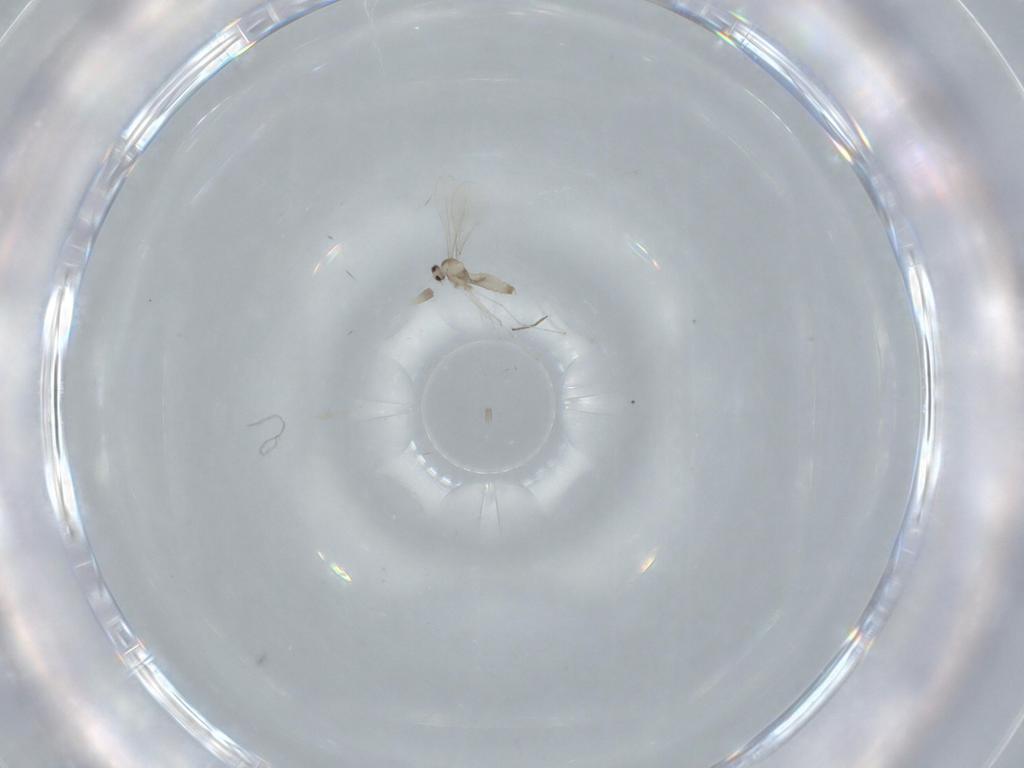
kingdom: Animalia
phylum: Arthropoda
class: Insecta
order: Diptera
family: Cecidomyiidae
